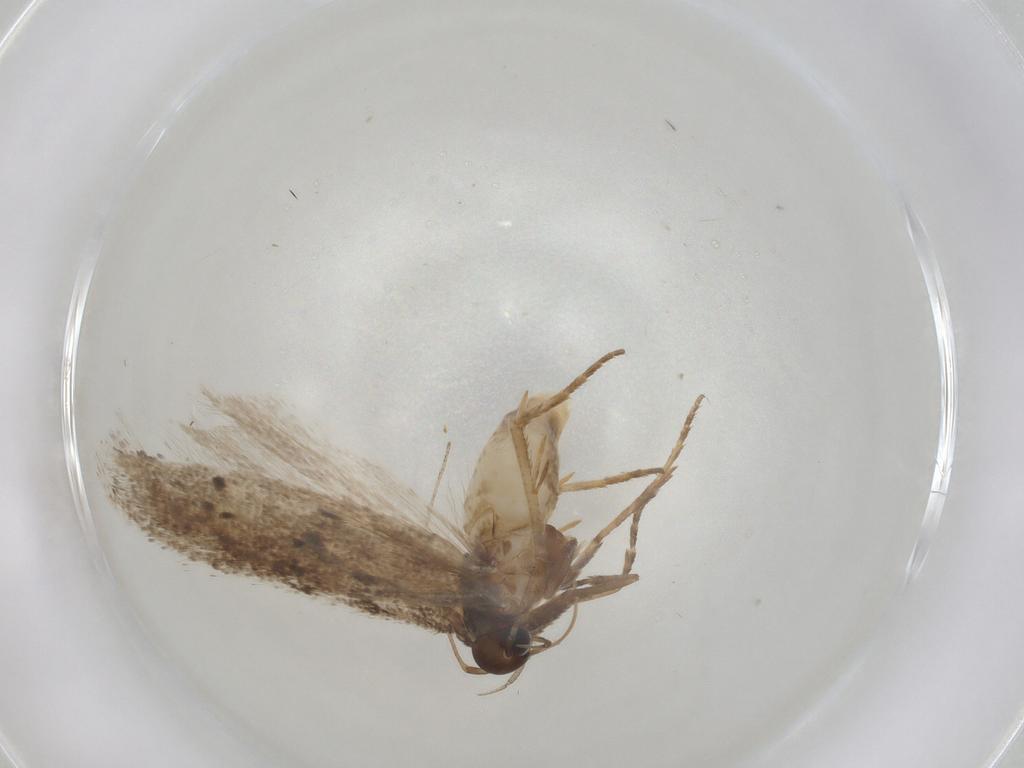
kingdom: Animalia
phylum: Arthropoda
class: Insecta
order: Lepidoptera
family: Gelechiidae
